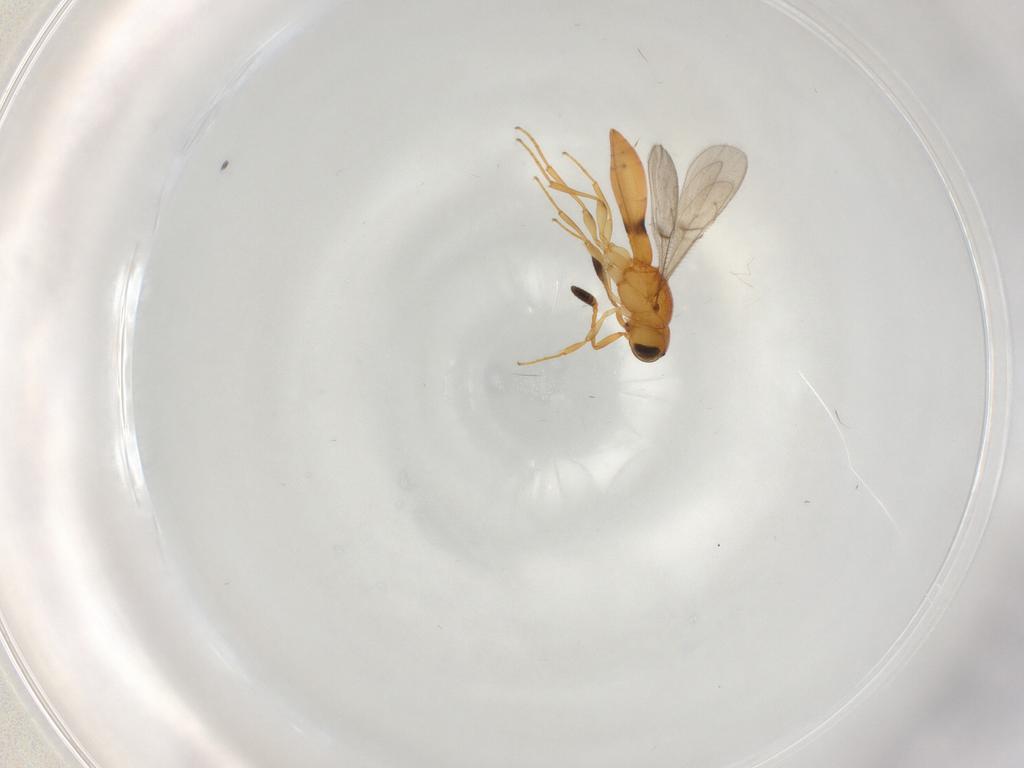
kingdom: Animalia
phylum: Arthropoda
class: Insecta
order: Hymenoptera
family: Scelionidae
